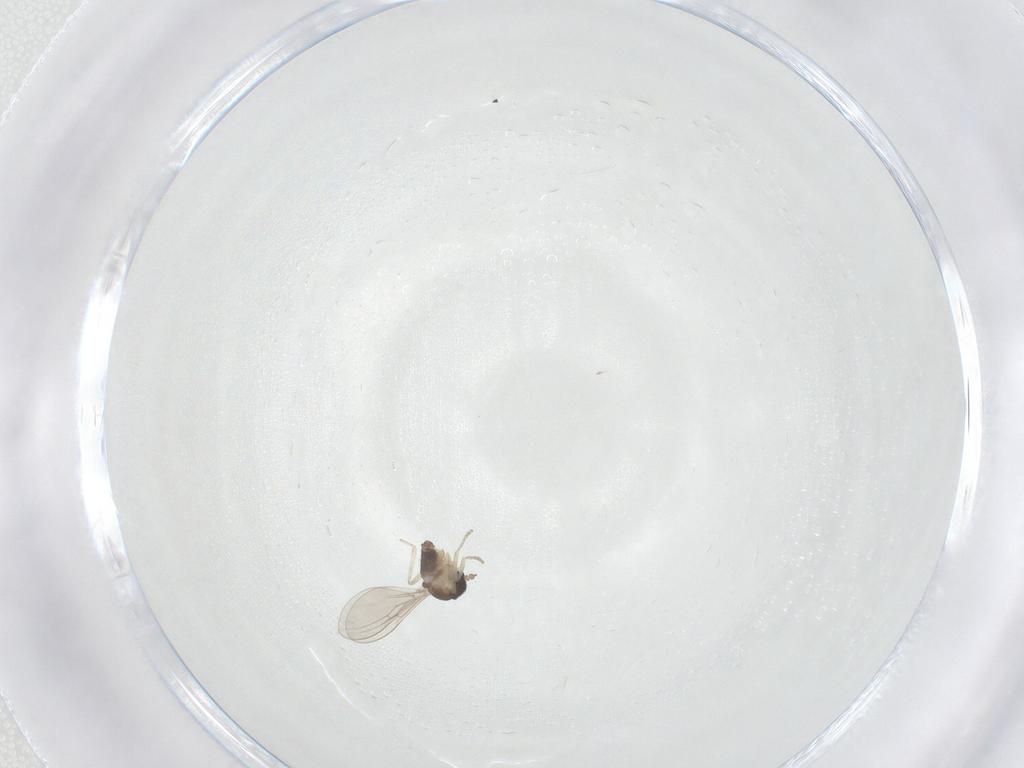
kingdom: Animalia
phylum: Arthropoda
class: Insecta
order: Diptera
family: Cecidomyiidae
